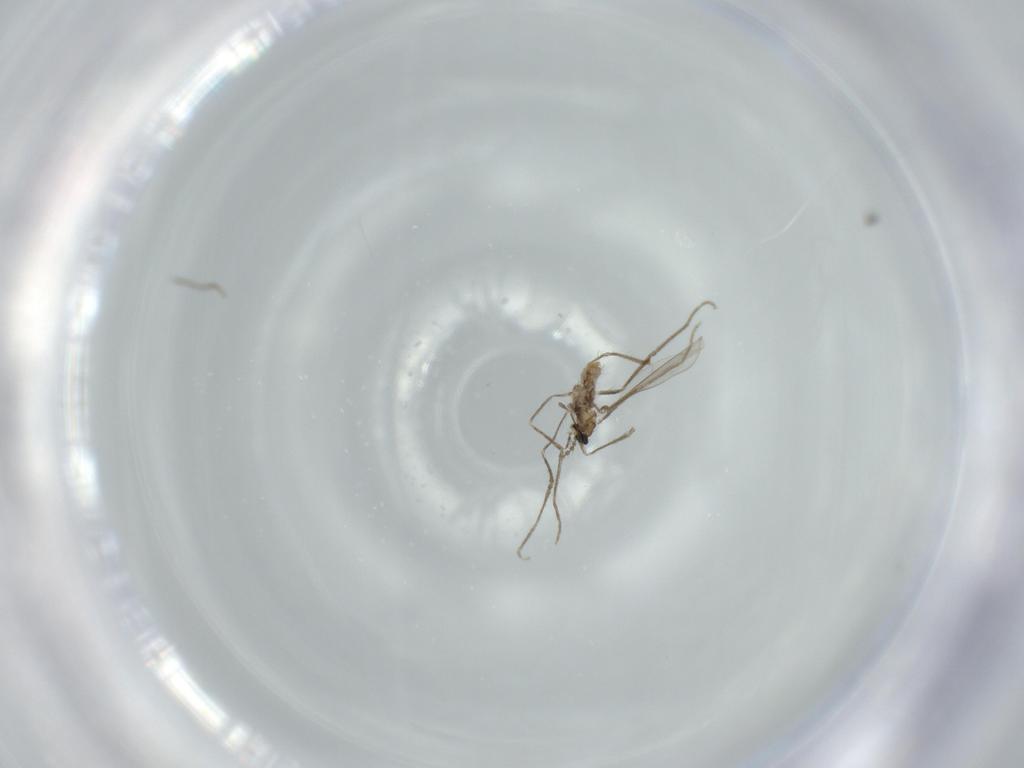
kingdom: Animalia
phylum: Arthropoda
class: Insecta
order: Diptera
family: Cecidomyiidae
